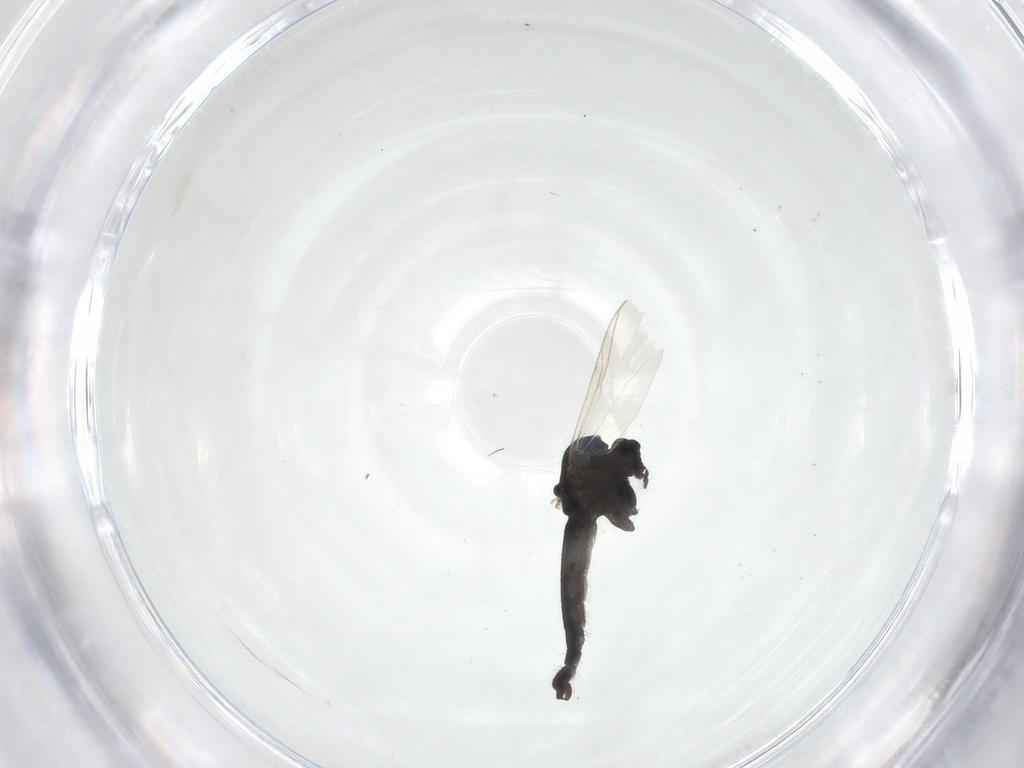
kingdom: Animalia
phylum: Arthropoda
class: Insecta
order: Diptera
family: Chironomidae
